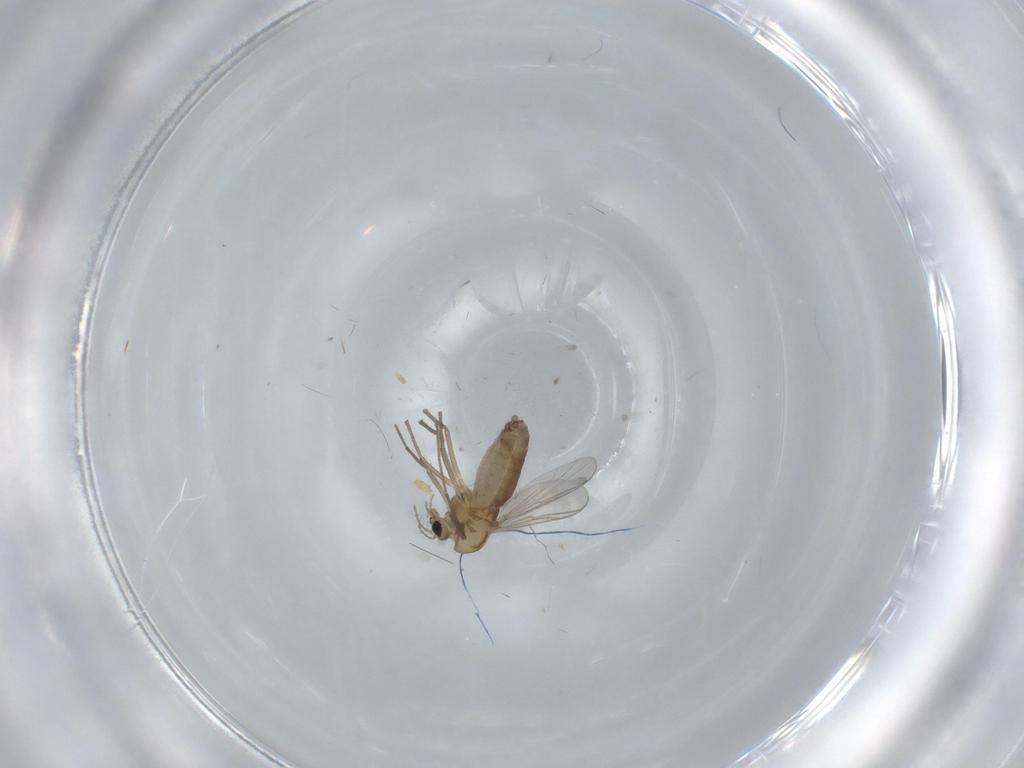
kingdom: Animalia
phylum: Arthropoda
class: Insecta
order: Diptera
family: Chironomidae
